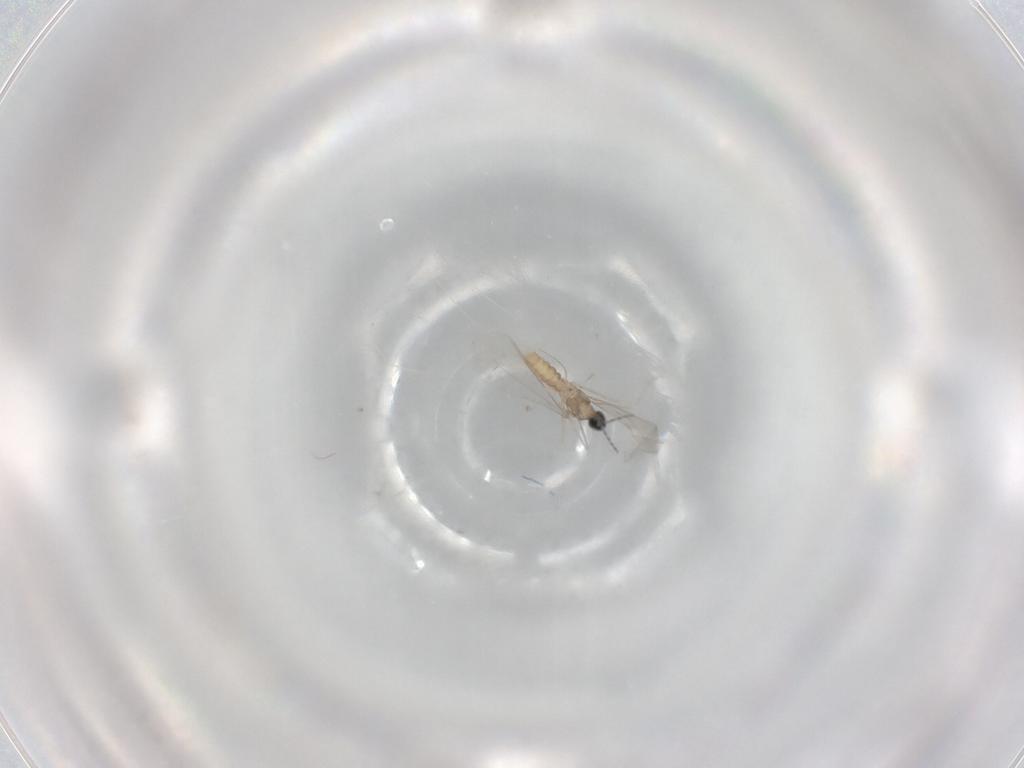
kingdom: Animalia
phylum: Arthropoda
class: Insecta
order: Diptera
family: Cecidomyiidae
